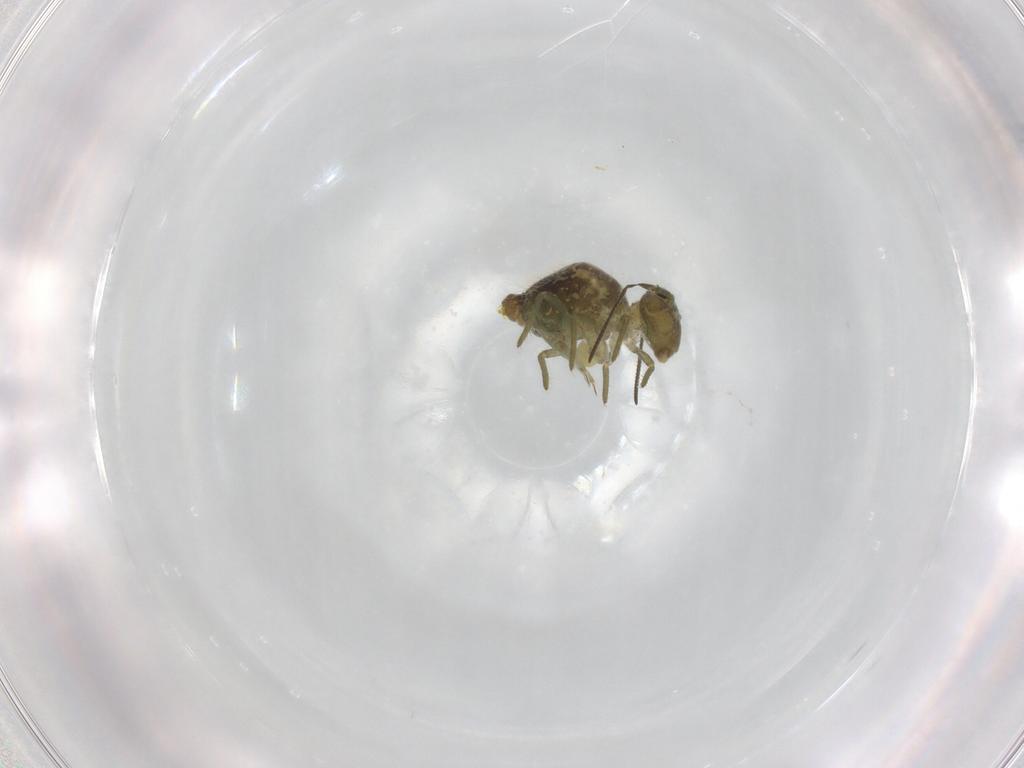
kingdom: Animalia
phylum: Arthropoda
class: Collembola
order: Symphypleona
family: Sminthuridae
